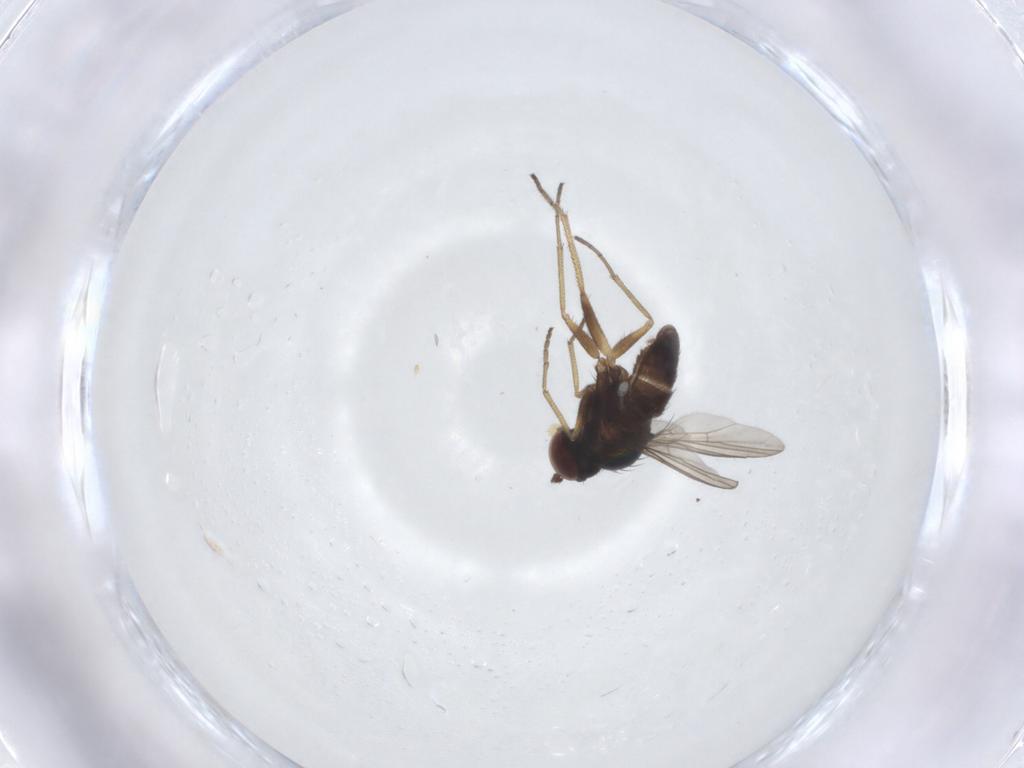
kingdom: Animalia
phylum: Arthropoda
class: Insecta
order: Diptera
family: Dolichopodidae
